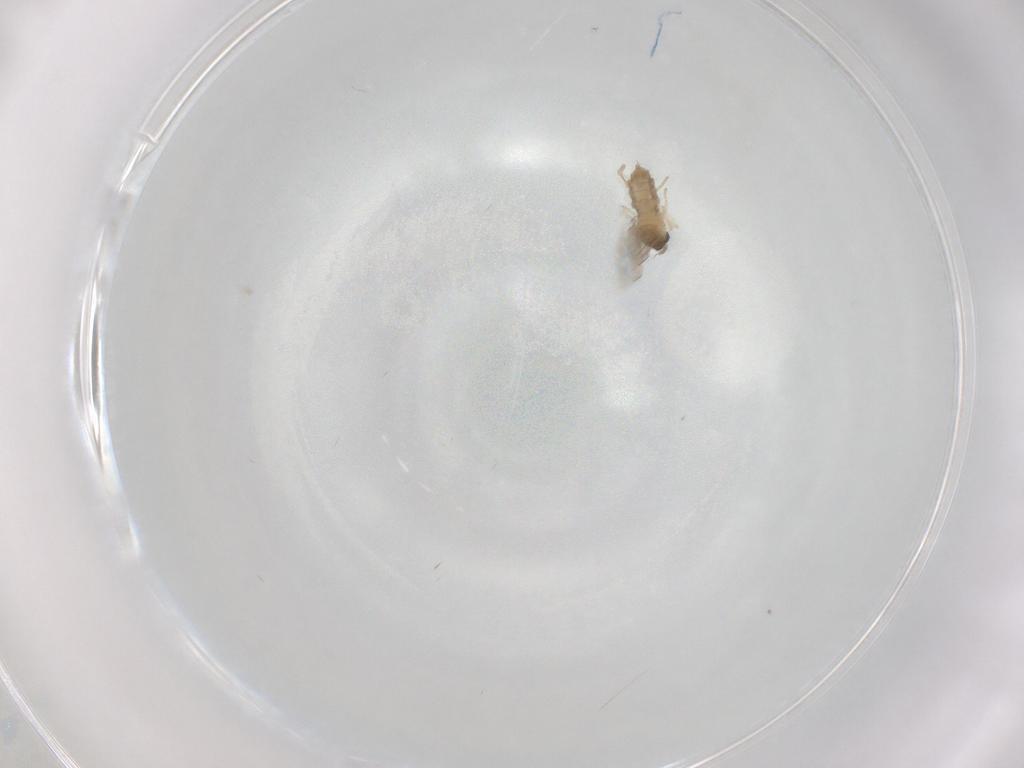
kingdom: Animalia
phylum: Arthropoda
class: Insecta
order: Diptera
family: Cecidomyiidae
